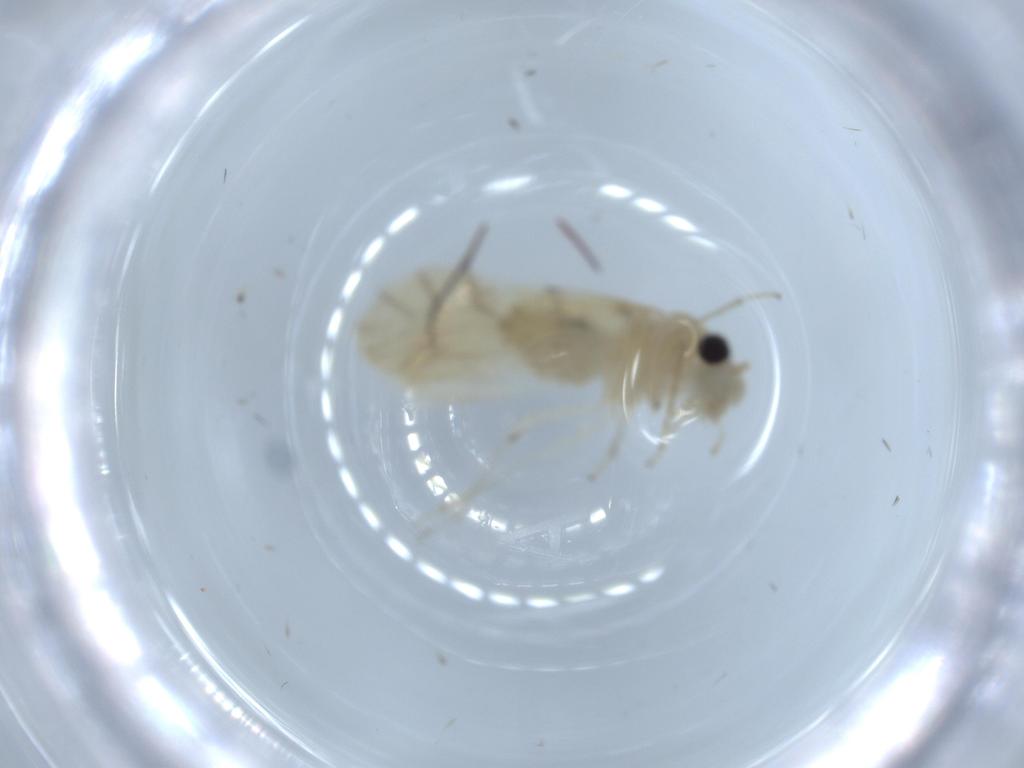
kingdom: Animalia
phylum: Arthropoda
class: Insecta
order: Psocodea
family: Caeciliusidae
